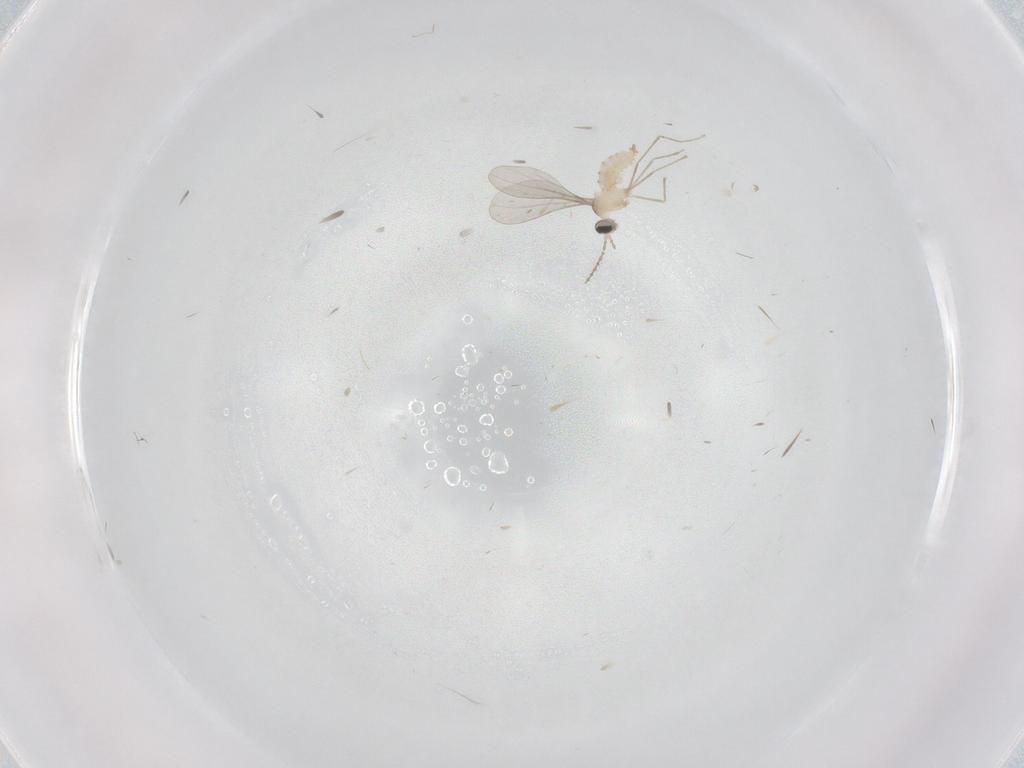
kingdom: Animalia
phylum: Arthropoda
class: Insecta
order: Diptera
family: Cecidomyiidae
